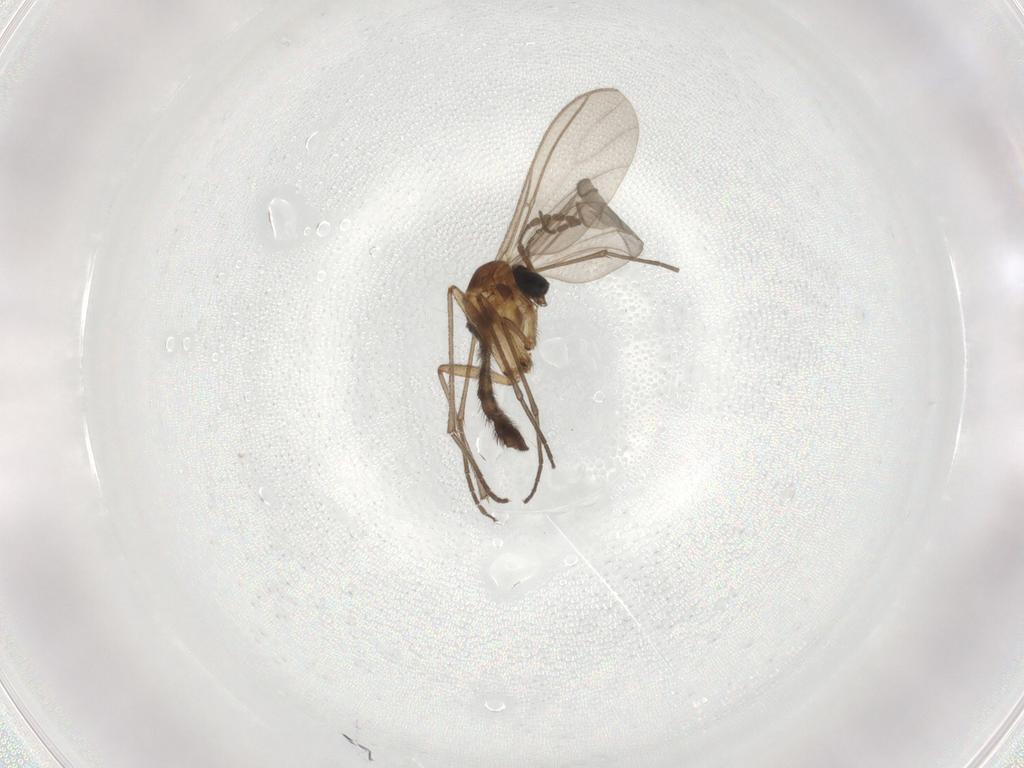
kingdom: Animalia
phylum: Arthropoda
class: Insecta
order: Diptera
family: Sciaridae
